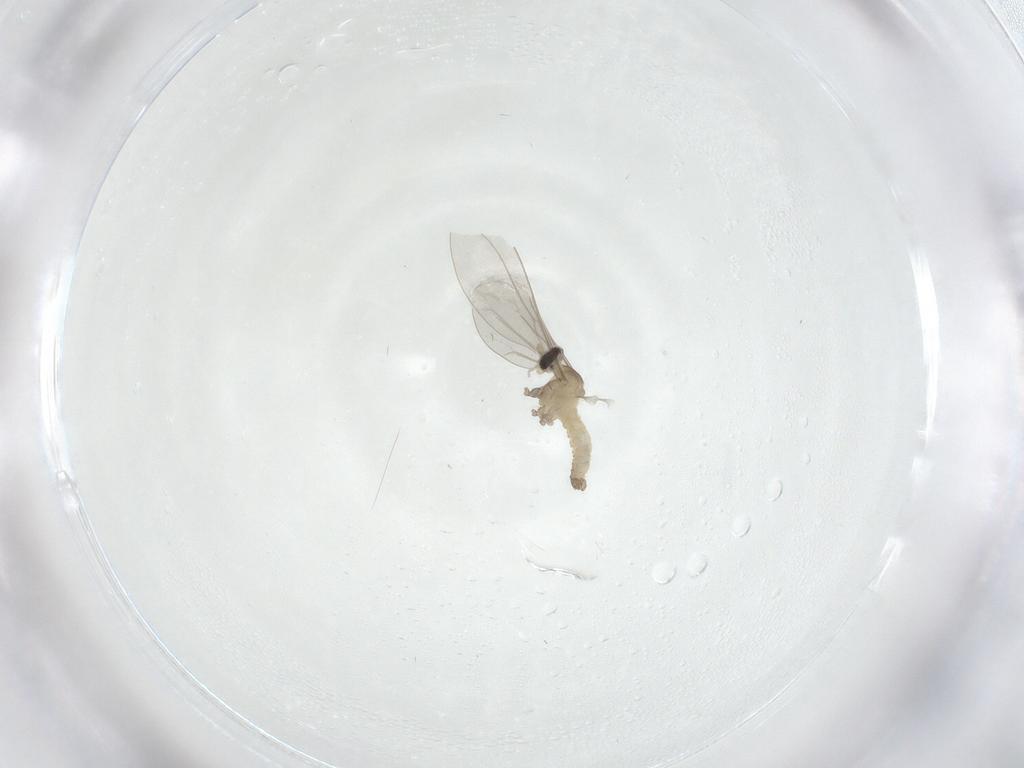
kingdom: Animalia
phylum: Arthropoda
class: Insecta
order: Diptera
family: Cecidomyiidae
